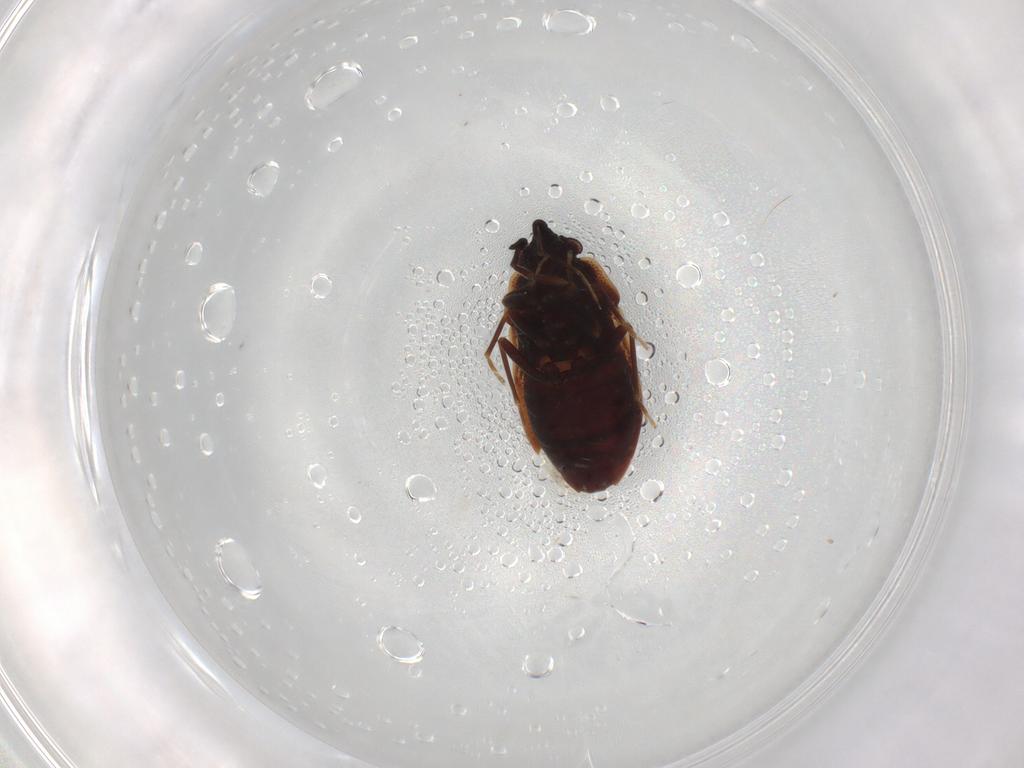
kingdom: Animalia
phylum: Arthropoda
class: Insecta
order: Hemiptera
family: Rhyparochromidae
